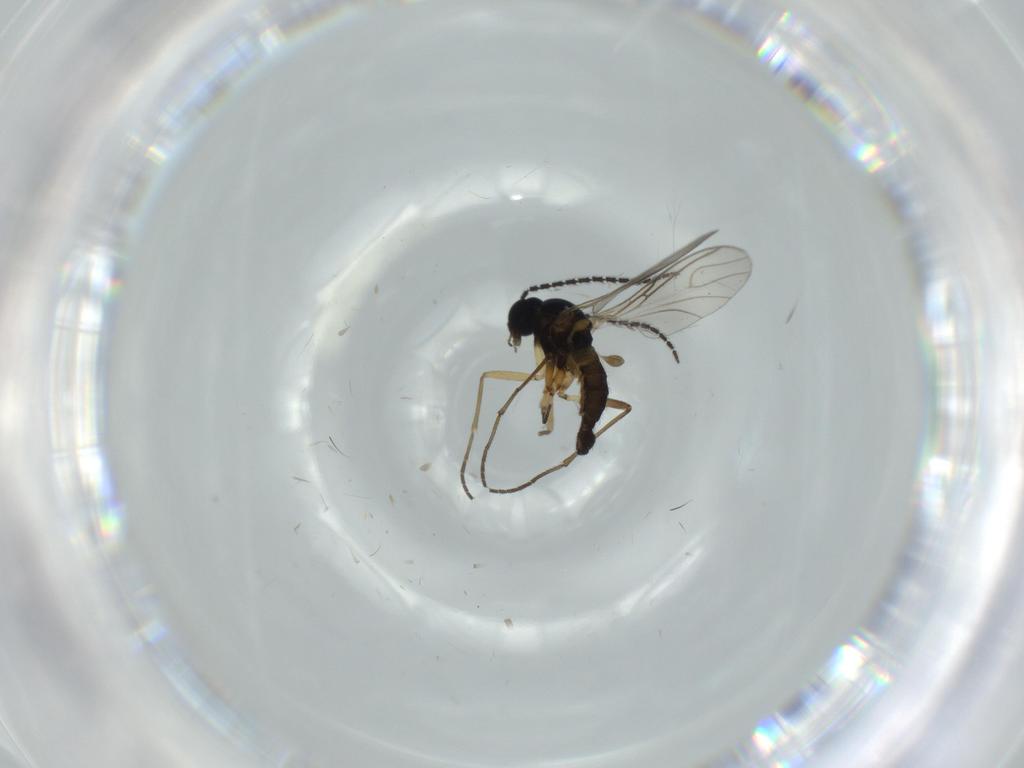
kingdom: Animalia
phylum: Arthropoda
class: Insecta
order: Diptera
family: Sciaridae
